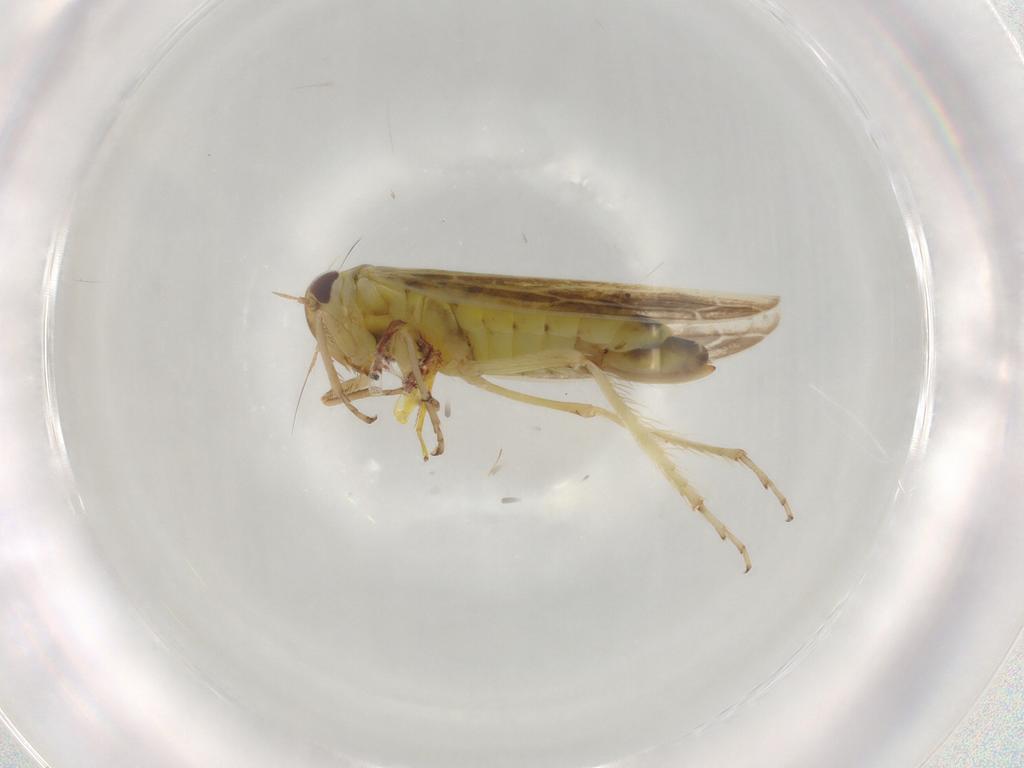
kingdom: Animalia
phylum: Arthropoda
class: Insecta
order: Hemiptera
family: Cicadellidae
